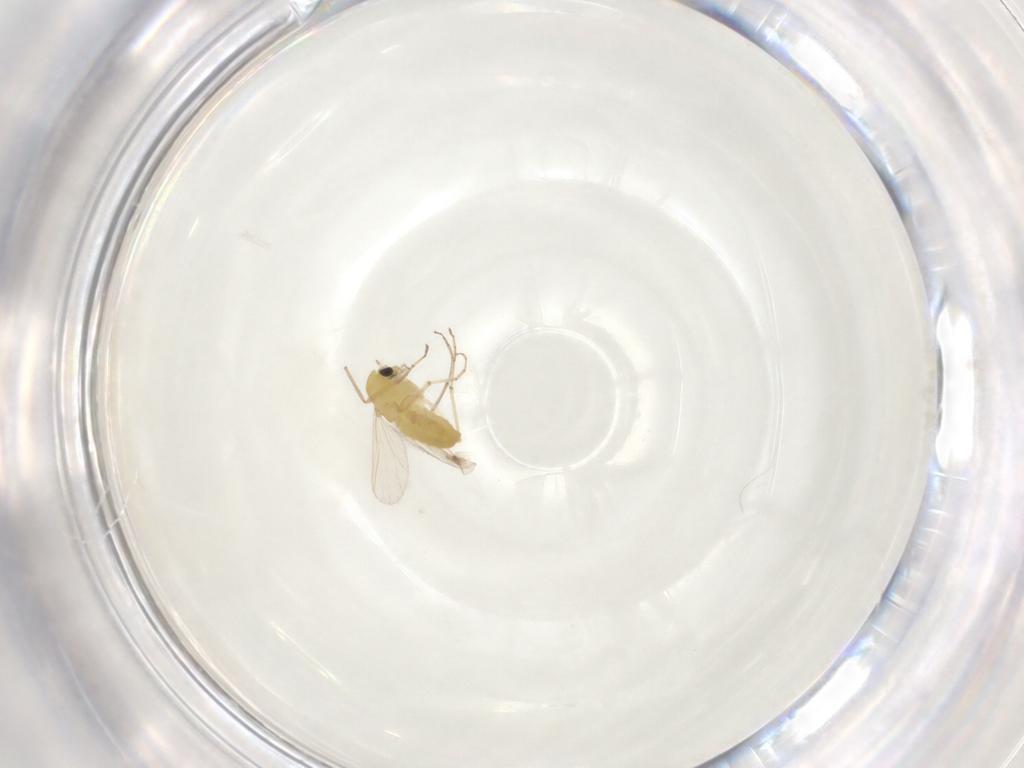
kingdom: Animalia
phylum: Arthropoda
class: Insecta
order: Diptera
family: Chironomidae
